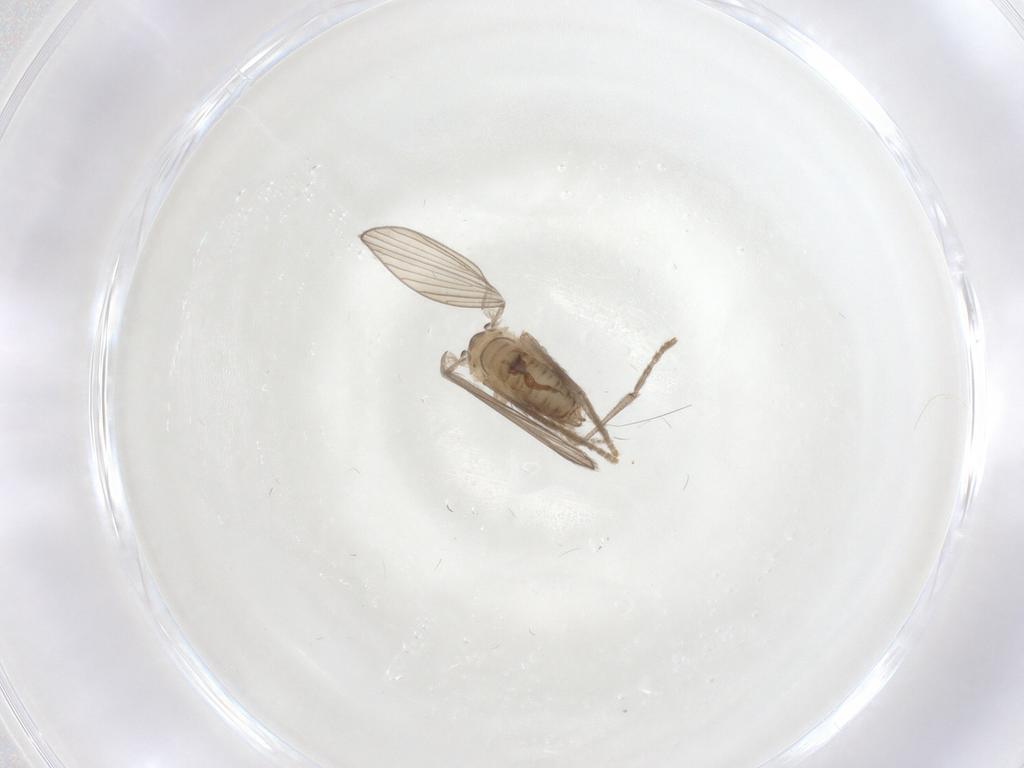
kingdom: Animalia
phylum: Arthropoda
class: Insecta
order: Diptera
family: Psychodidae
